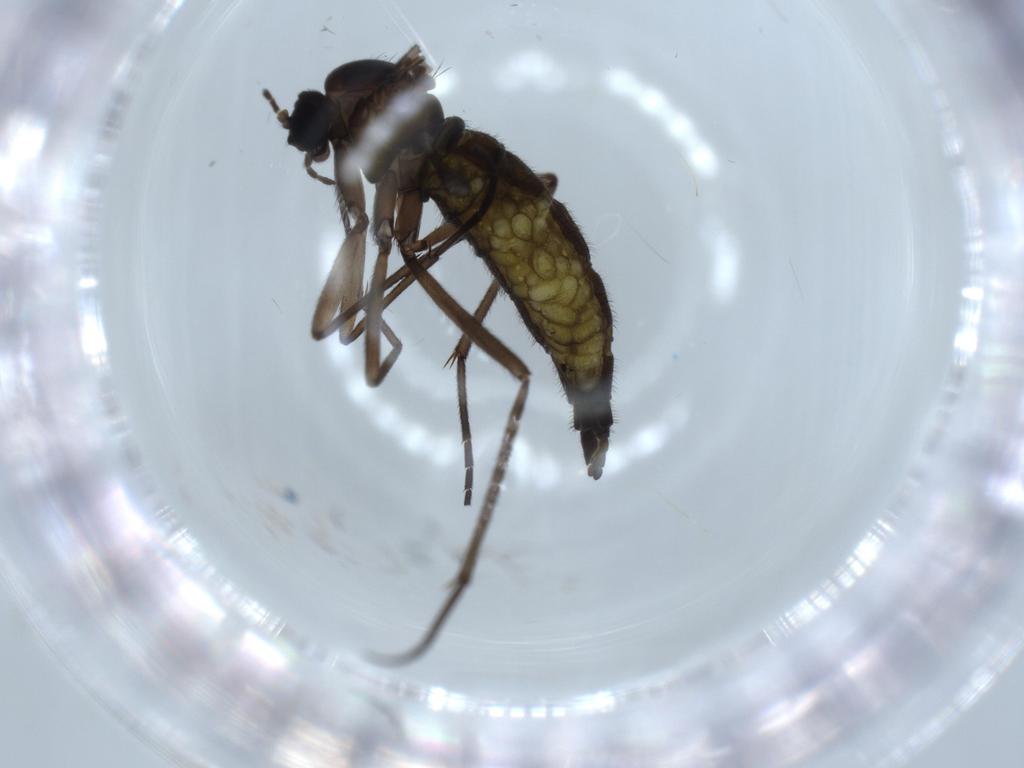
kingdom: Animalia
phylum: Arthropoda
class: Insecta
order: Diptera
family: Sciaridae
